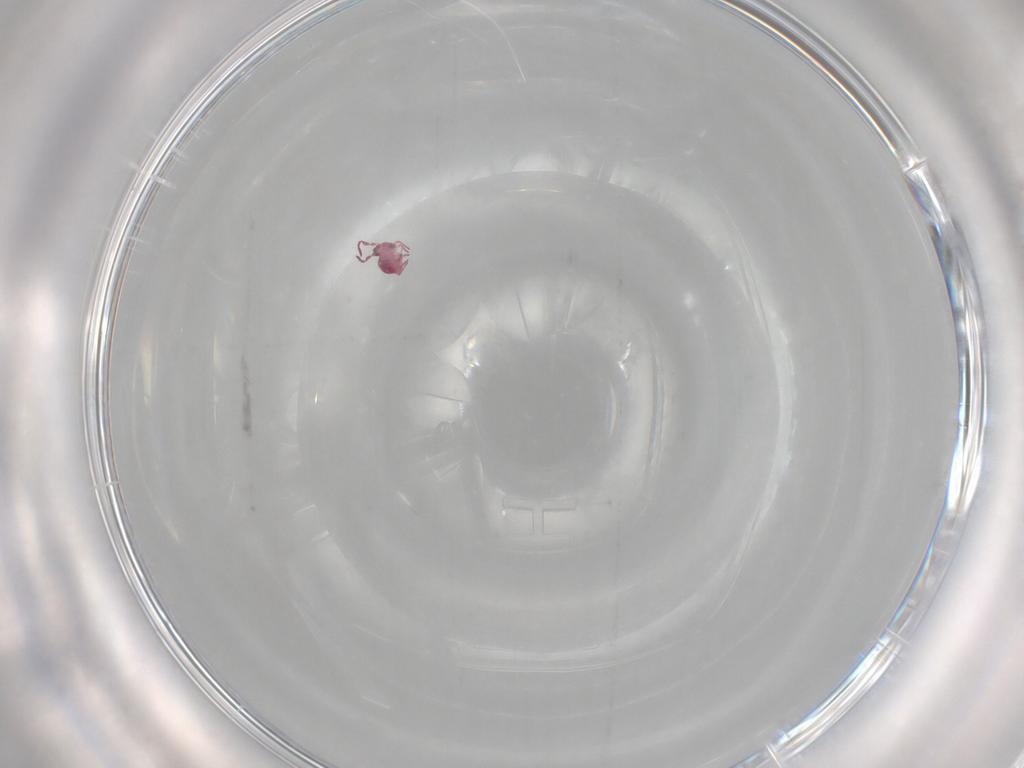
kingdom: Animalia
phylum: Arthropoda
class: Collembola
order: Symphypleona
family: Sminthurididae
